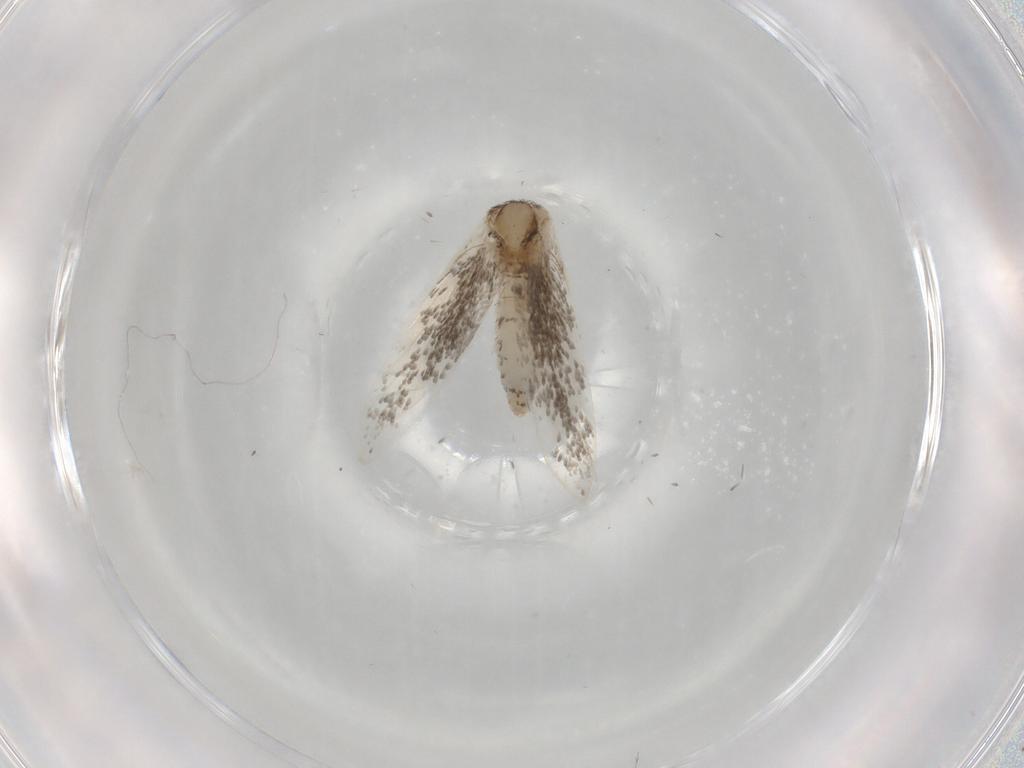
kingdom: Animalia
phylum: Arthropoda
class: Insecta
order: Lepidoptera
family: Tineidae
